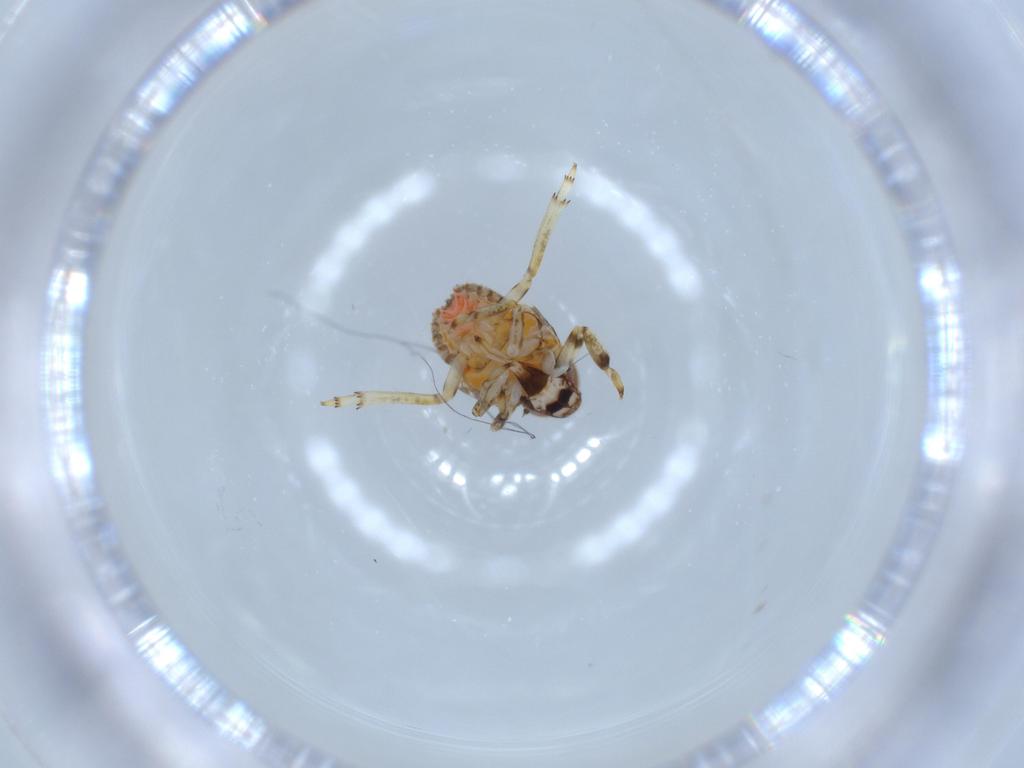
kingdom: Animalia
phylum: Arthropoda
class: Insecta
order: Hemiptera
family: Issidae
